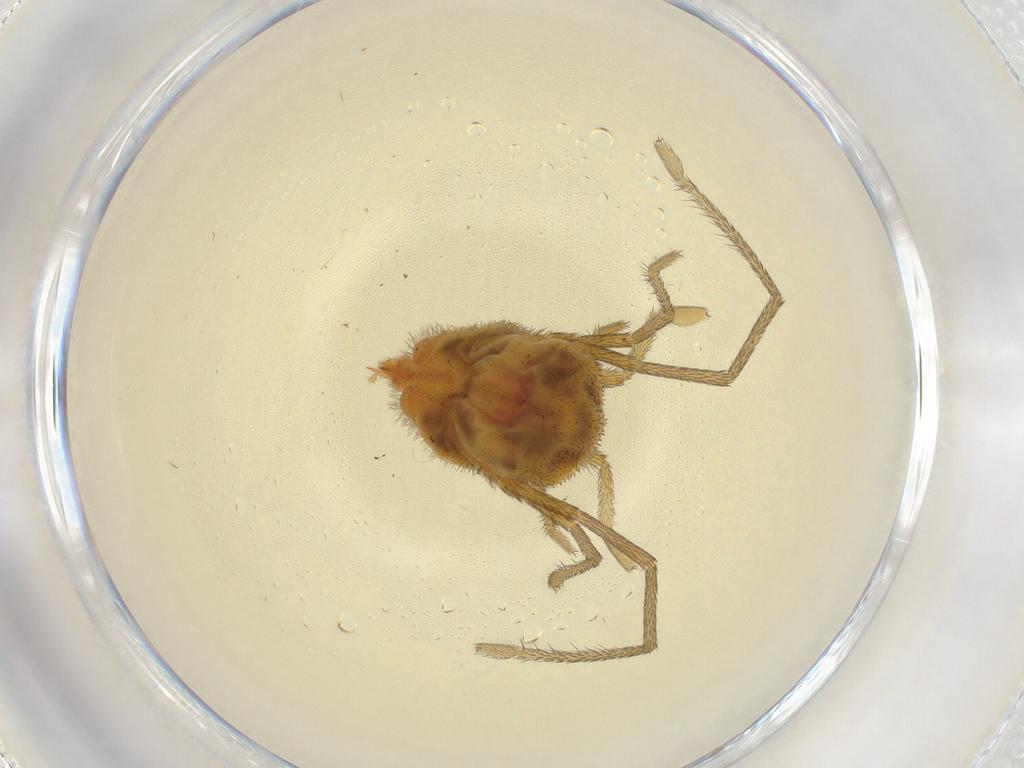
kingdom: Animalia
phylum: Arthropoda
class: Arachnida
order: Trombidiformes
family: Erythraeidae
